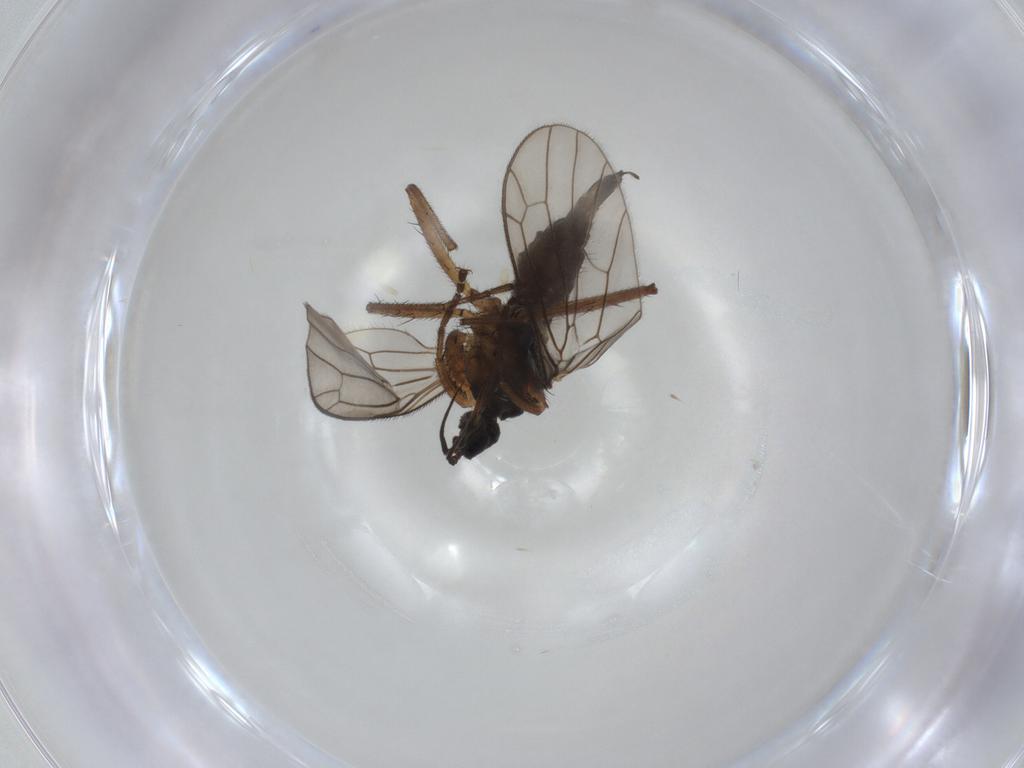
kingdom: Animalia
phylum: Arthropoda
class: Insecta
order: Diptera
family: Empididae
